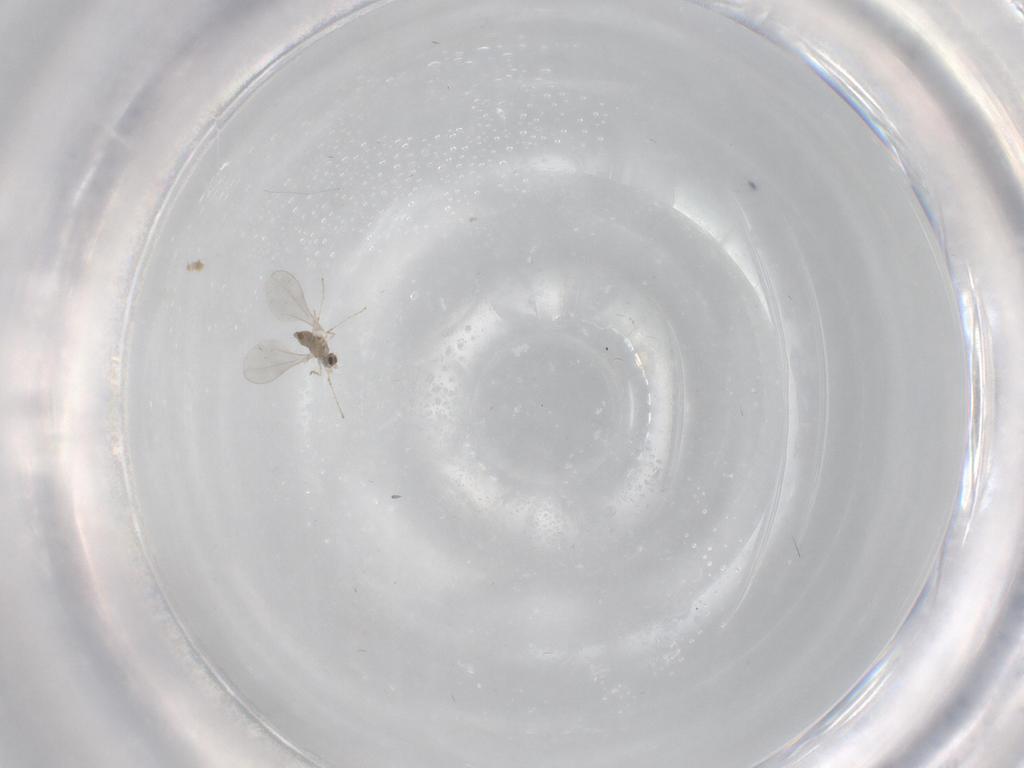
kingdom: Animalia
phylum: Arthropoda
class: Insecta
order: Diptera
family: Cecidomyiidae
